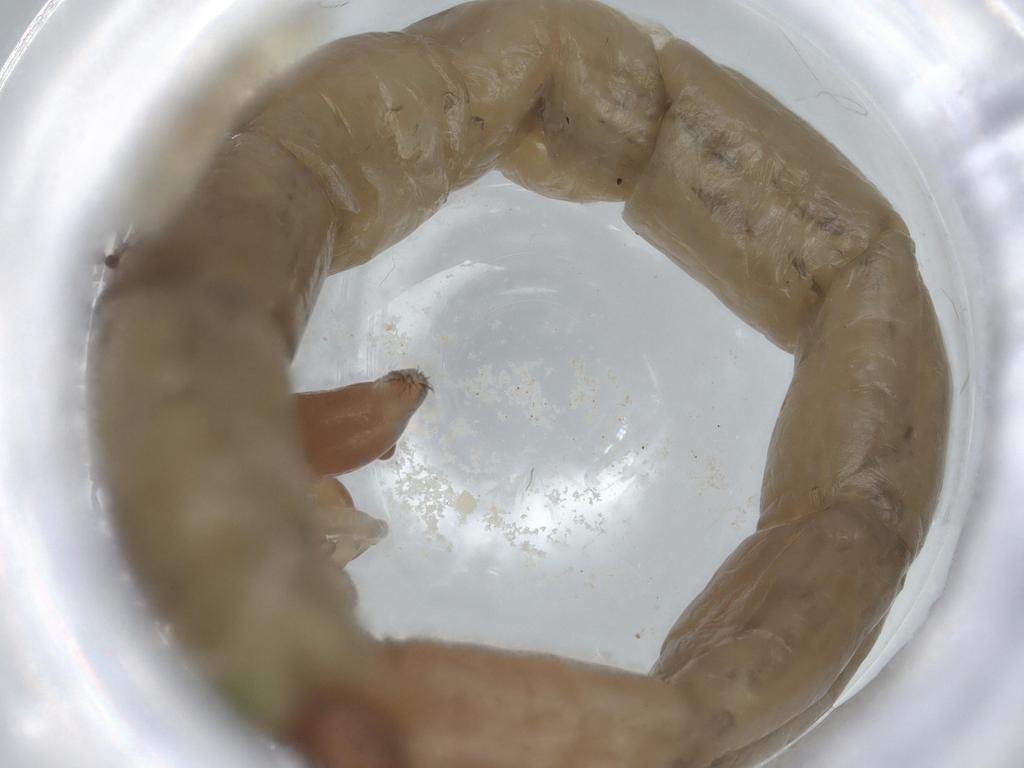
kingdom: Animalia
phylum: Arthropoda
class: Insecta
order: Diptera
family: Chironomidae
